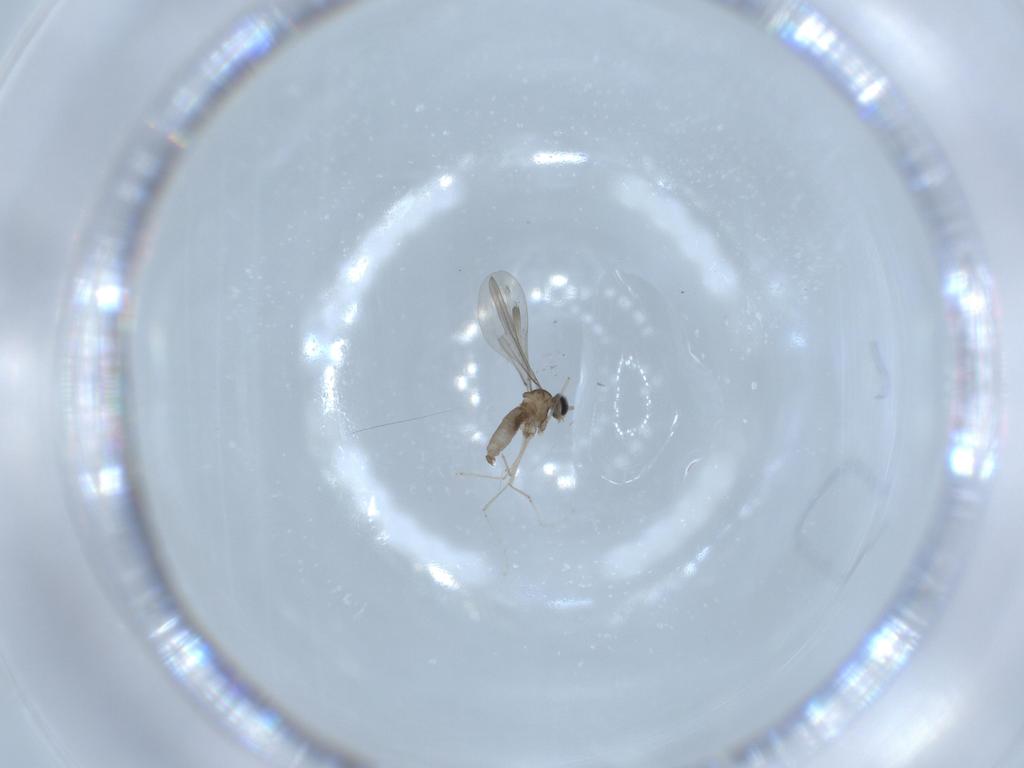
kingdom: Animalia
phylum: Arthropoda
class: Insecta
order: Diptera
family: Cecidomyiidae
